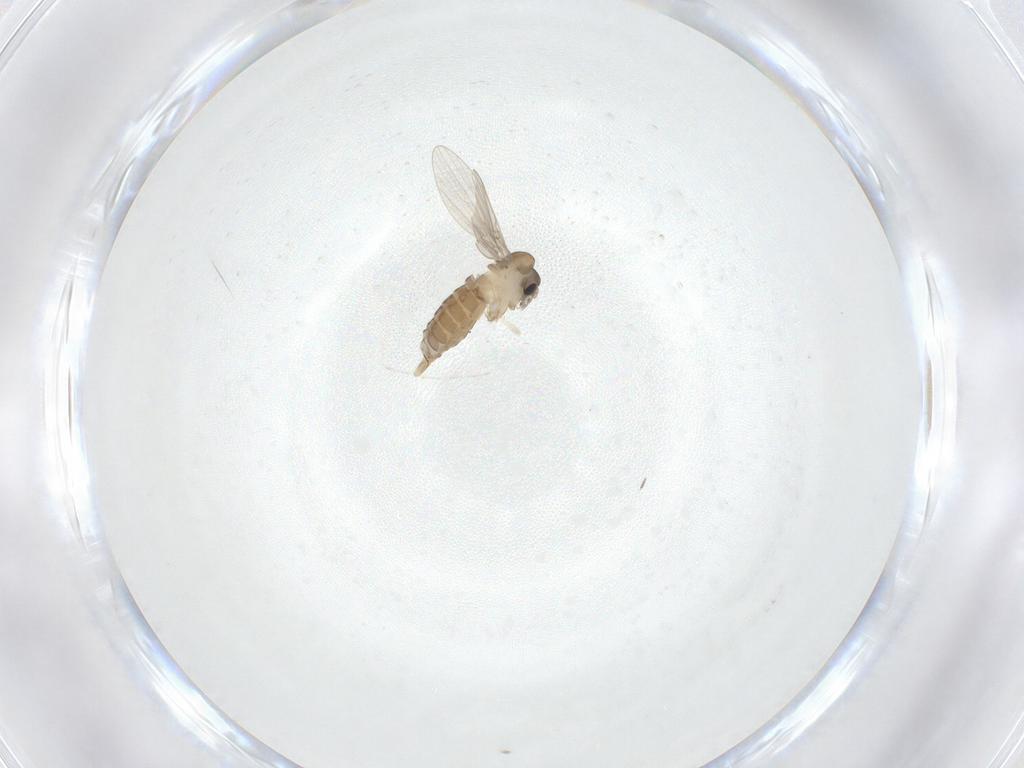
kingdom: Animalia
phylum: Arthropoda
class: Insecta
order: Diptera
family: Psychodidae
